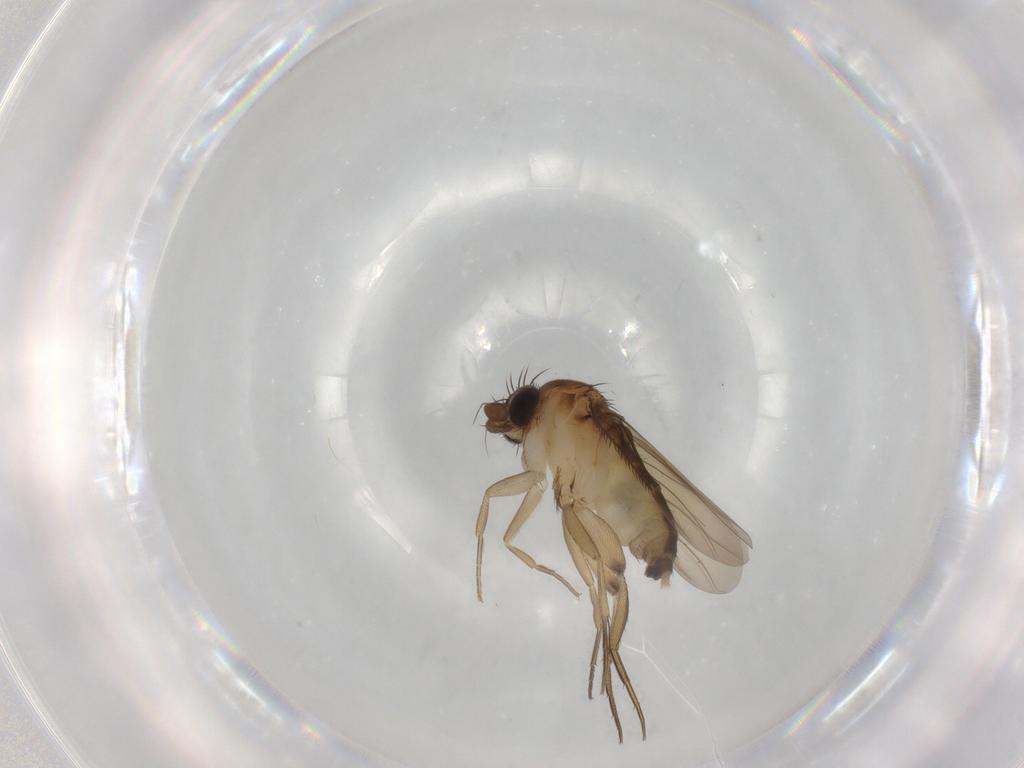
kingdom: Animalia
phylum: Arthropoda
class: Insecta
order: Diptera
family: Phoridae
